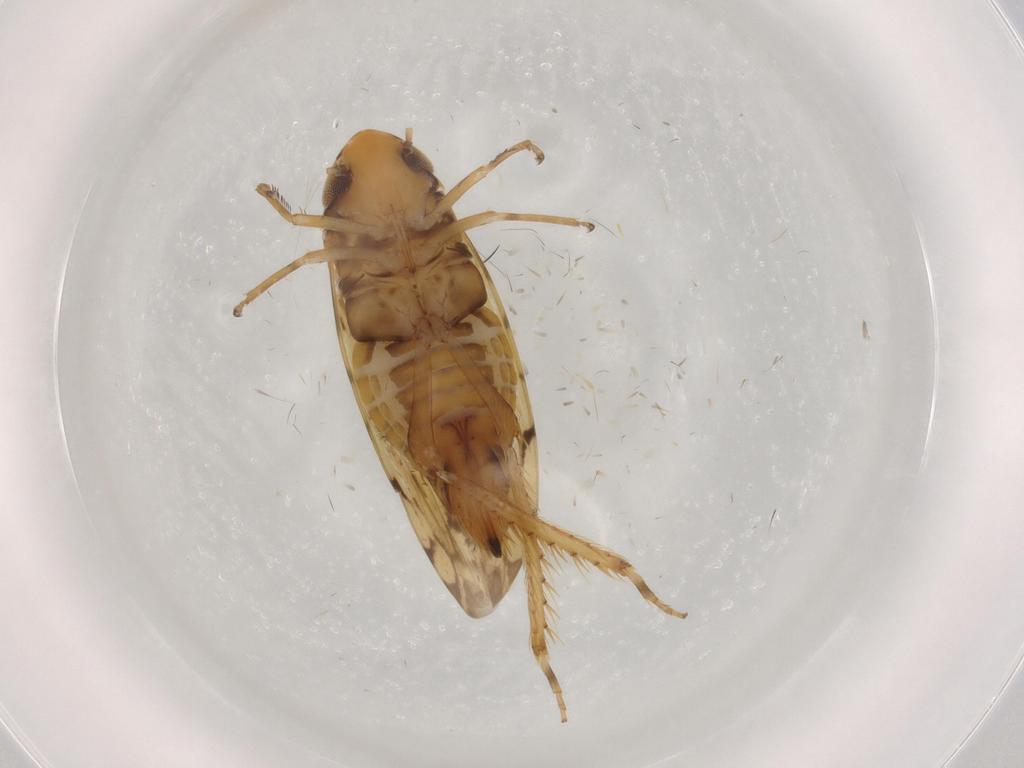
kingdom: Animalia
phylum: Arthropoda
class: Insecta
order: Hemiptera
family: Cicadellidae
